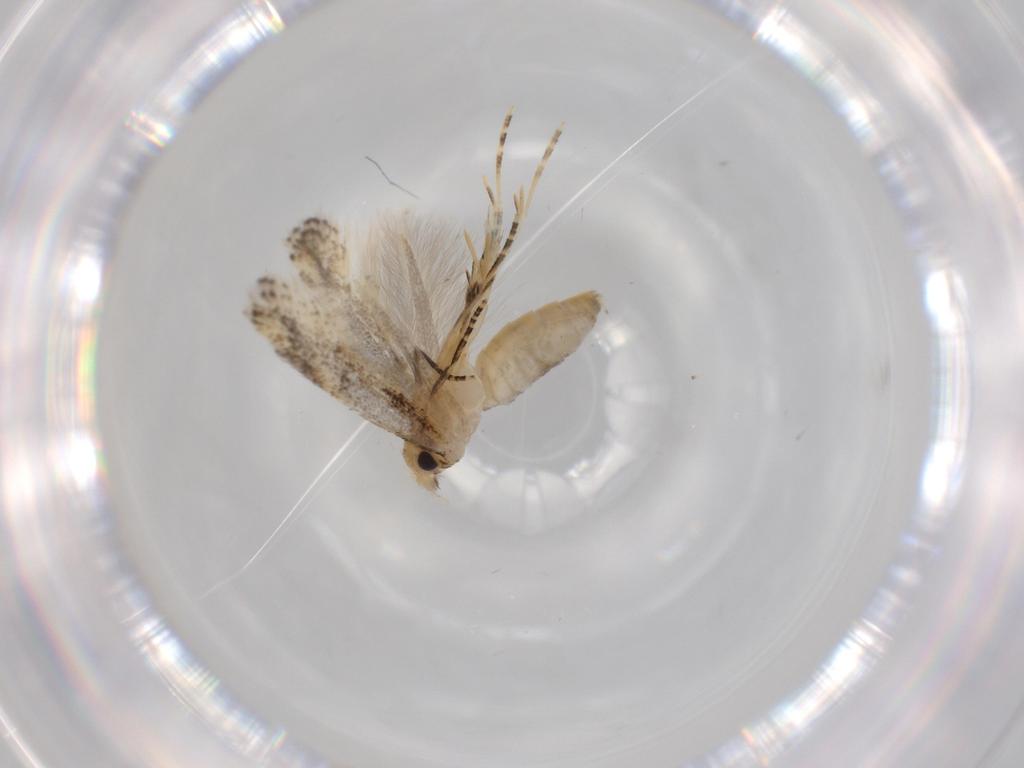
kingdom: Animalia
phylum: Arthropoda
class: Insecta
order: Lepidoptera
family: Bucculatricidae
